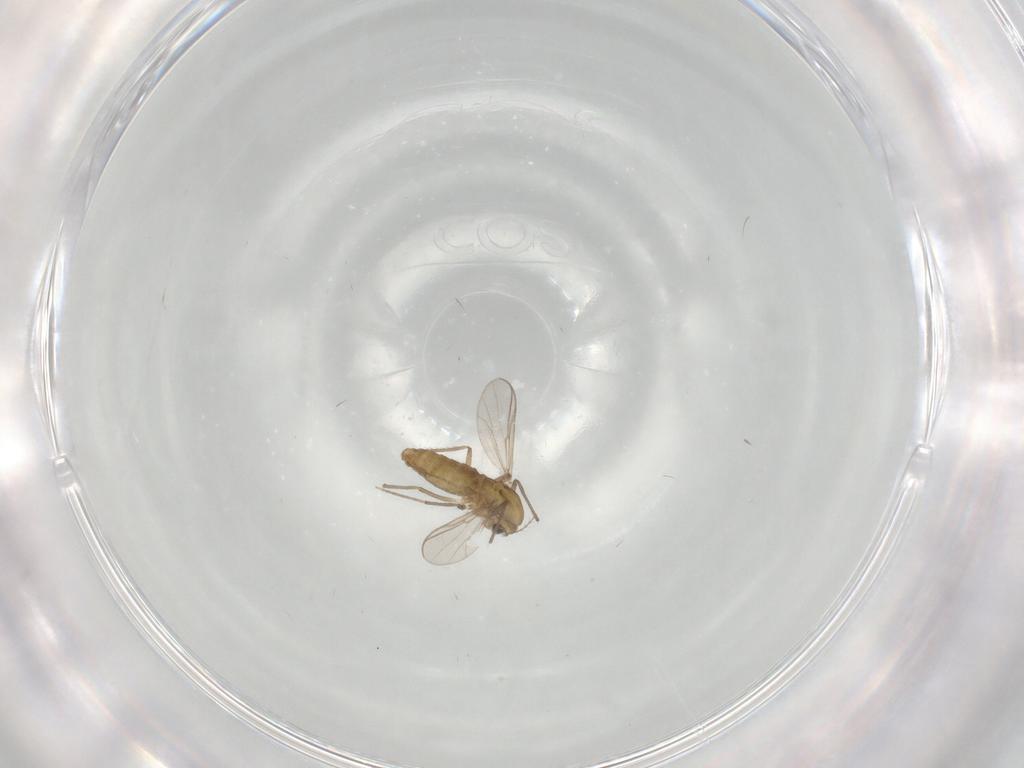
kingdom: Animalia
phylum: Arthropoda
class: Insecta
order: Diptera
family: Chironomidae
